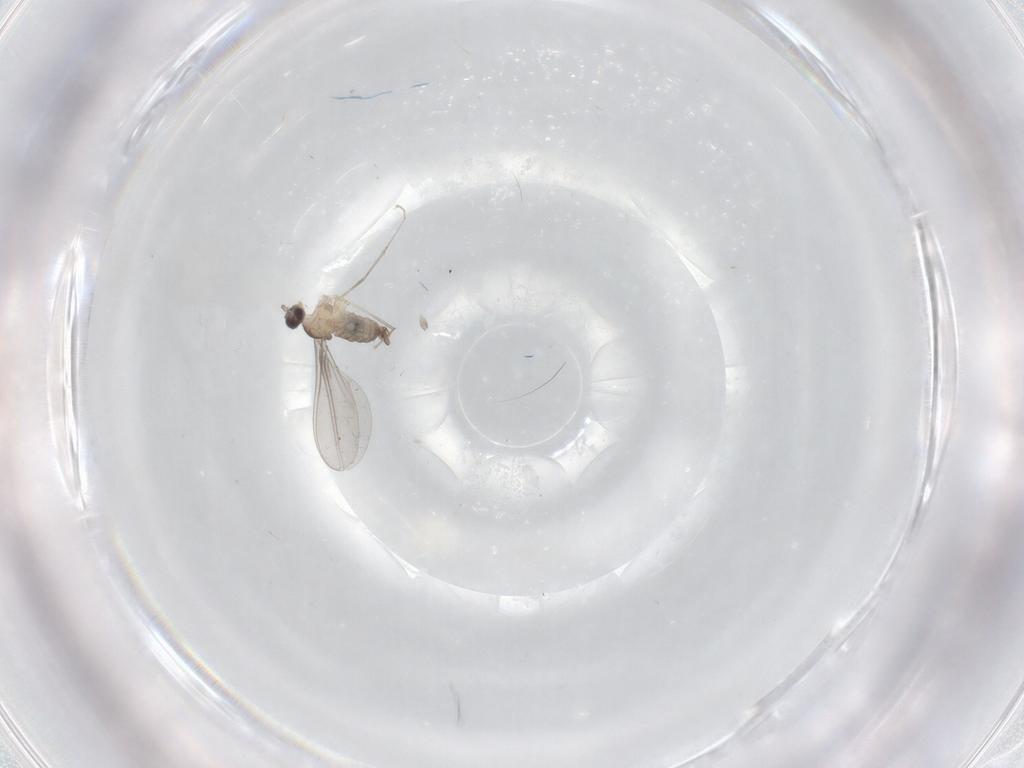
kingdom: Animalia
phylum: Arthropoda
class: Insecta
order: Diptera
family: Cecidomyiidae
